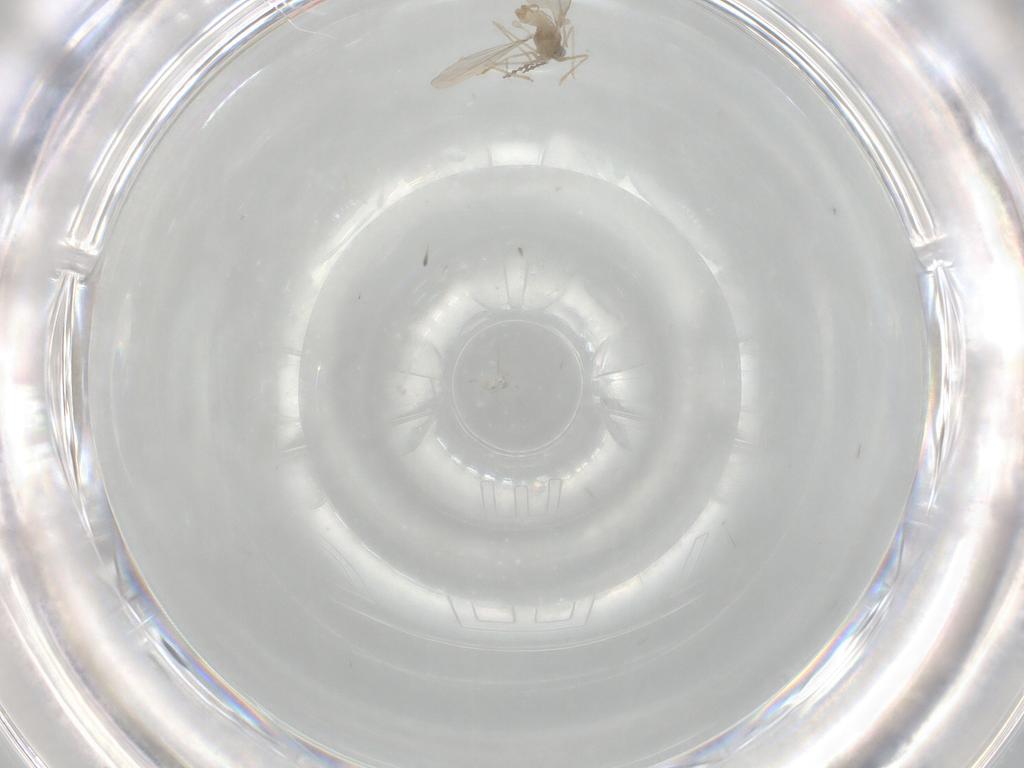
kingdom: Animalia
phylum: Arthropoda
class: Insecta
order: Diptera
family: Cecidomyiidae
